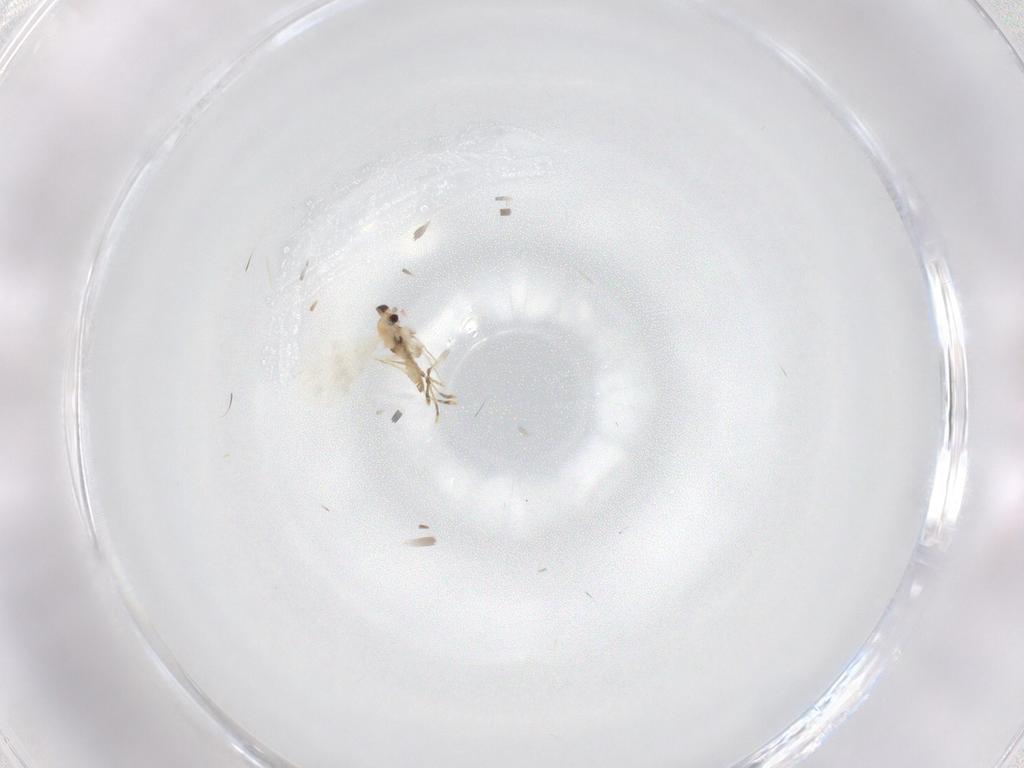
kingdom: Animalia
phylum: Arthropoda
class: Insecta
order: Diptera
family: Cecidomyiidae
